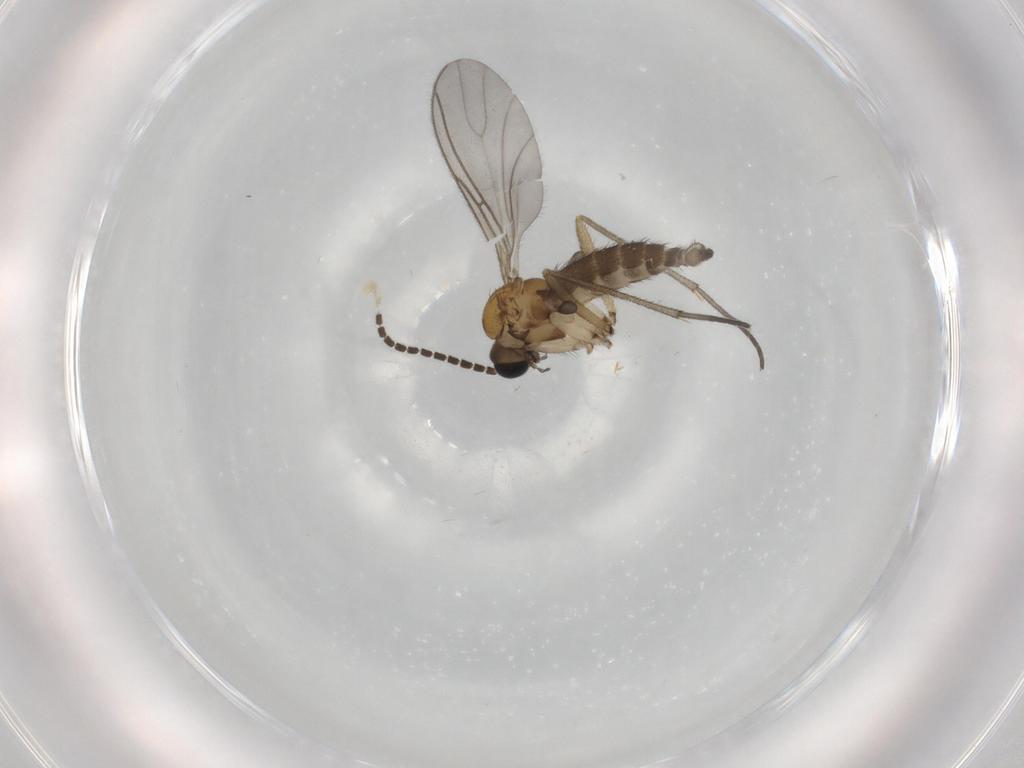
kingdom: Animalia
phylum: Arthropoda
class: Insecta
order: Diptera
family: Sciaridae
